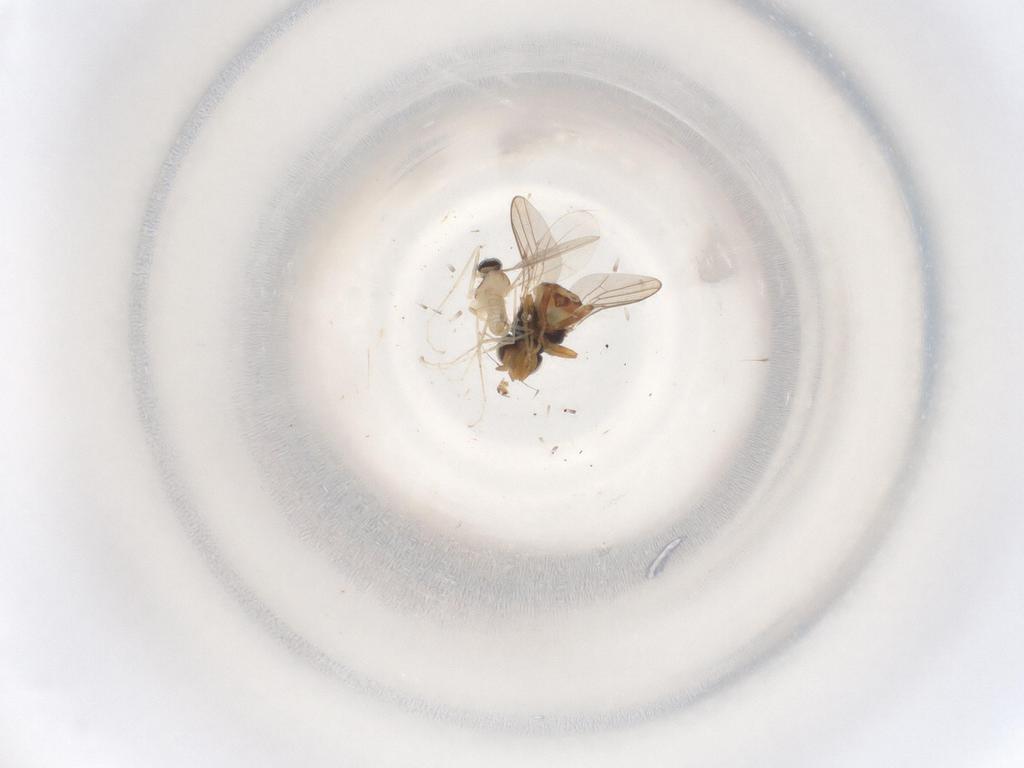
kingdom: Animalia
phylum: Arthropoda
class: Insecta
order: Diptera
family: Cecidomyiidae
